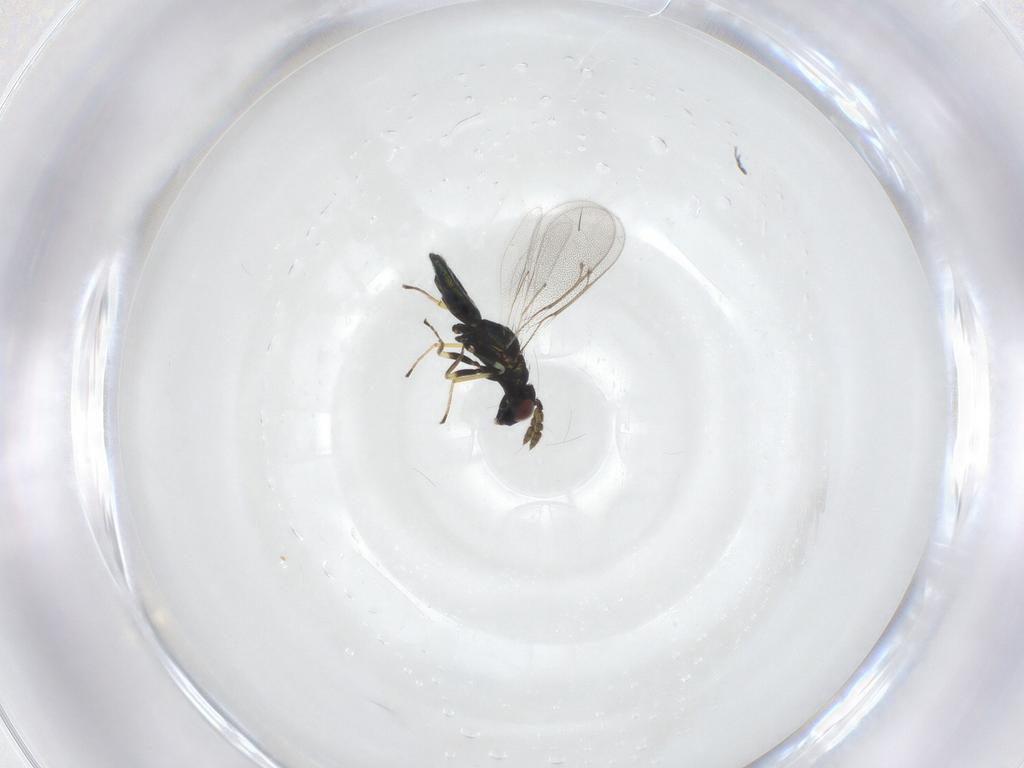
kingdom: Animalia
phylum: Arthropoda
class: Insecta
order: Hymenoptera
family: Eulophidae
